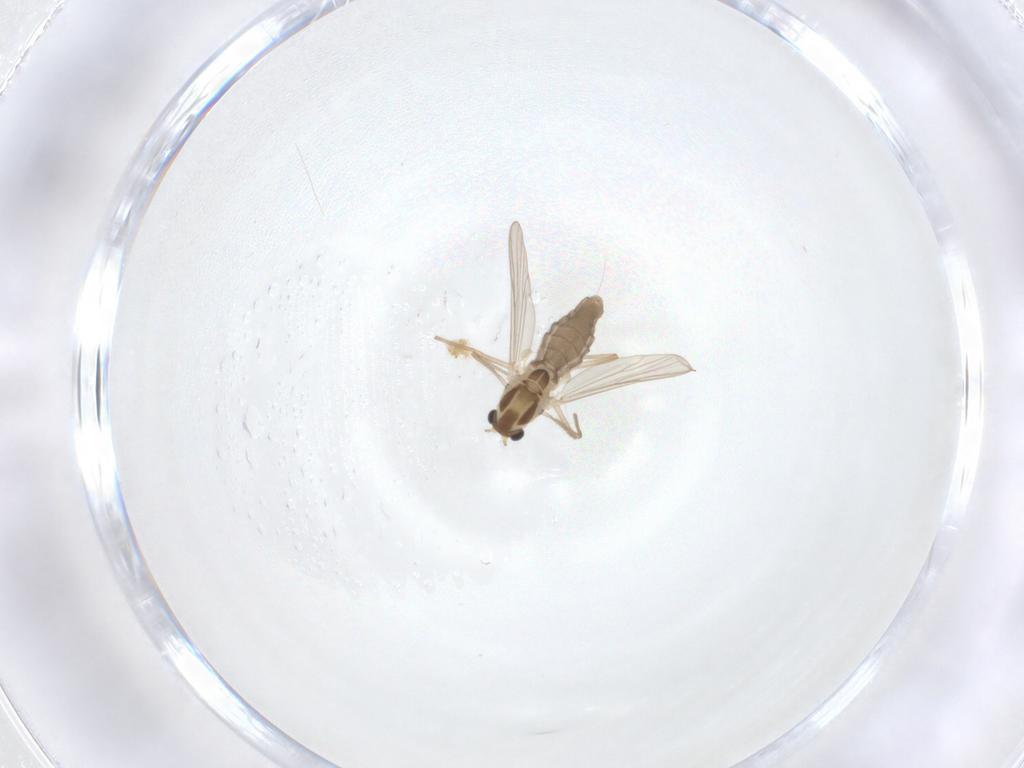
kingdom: Animalia
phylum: Arthropoda
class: Insecta
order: Diptera
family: Chironomidae
